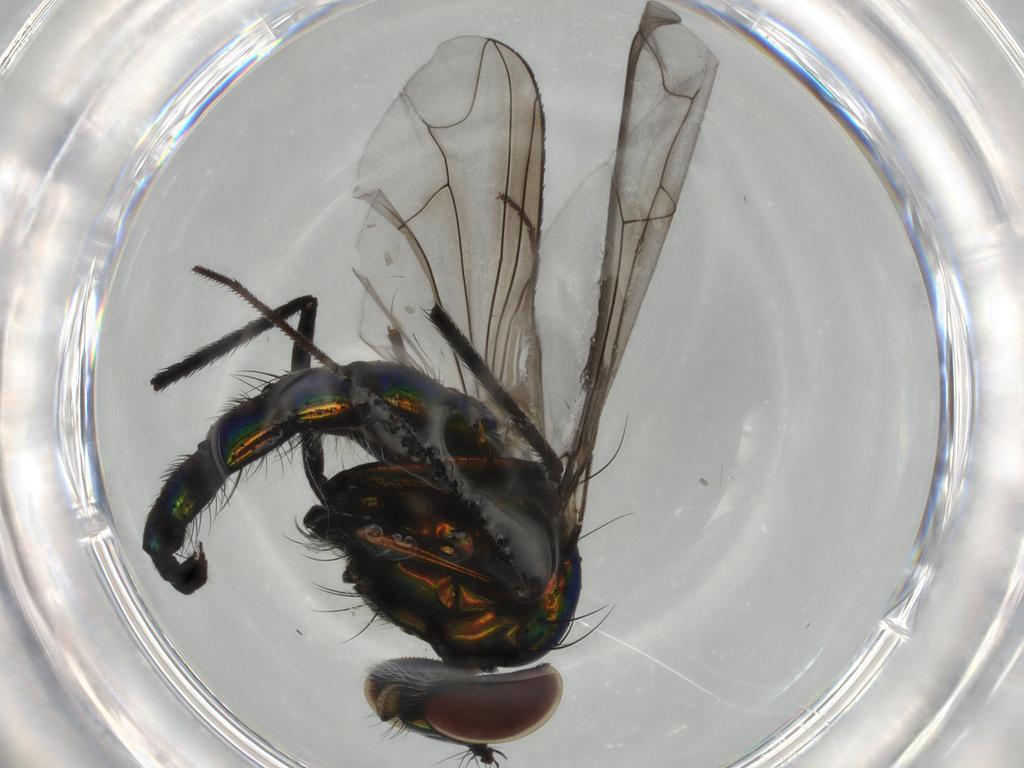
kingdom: Animalia
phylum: Arthropoda
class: Insecta
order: Diptera
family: Dolichopodidae
